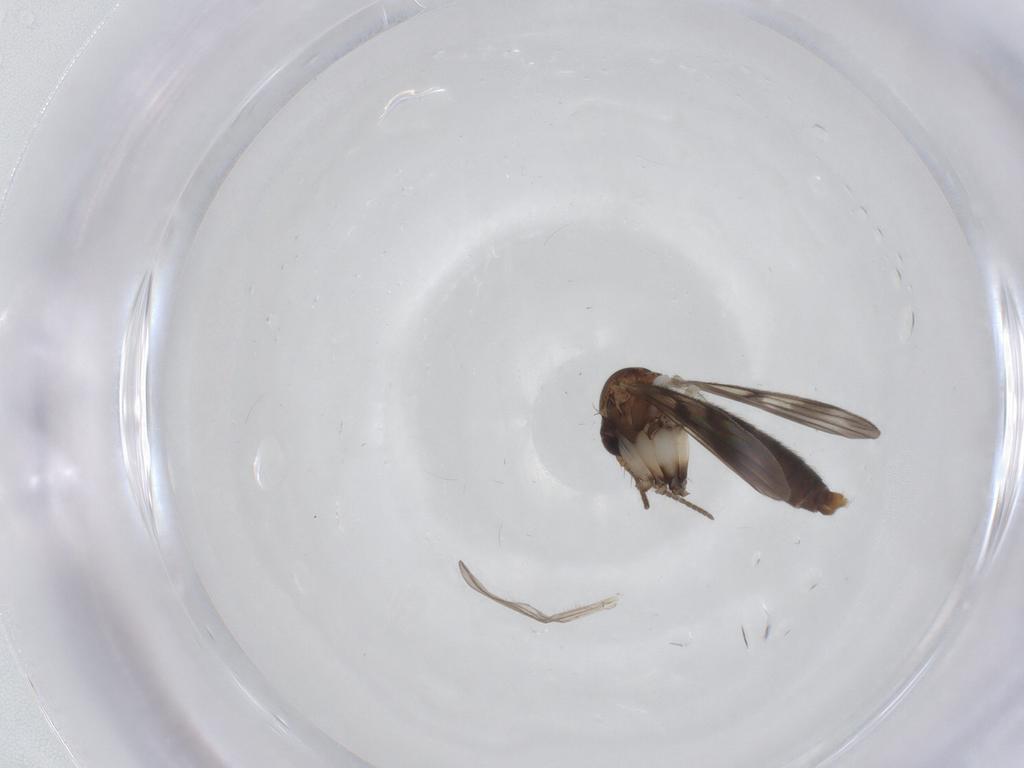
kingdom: Animalia
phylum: Arthropoda
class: Insecta
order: Diptera
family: Mycetophilidae
